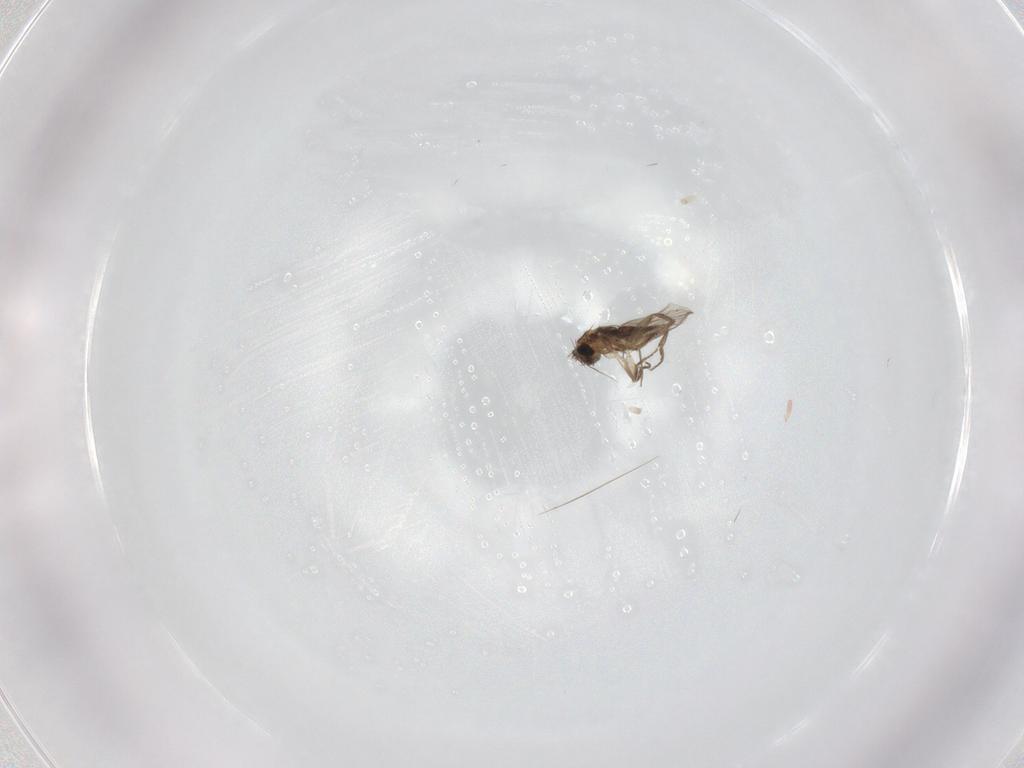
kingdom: Animalia
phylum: Arthropoda
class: Insecta
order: Diptera
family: Phoridae
